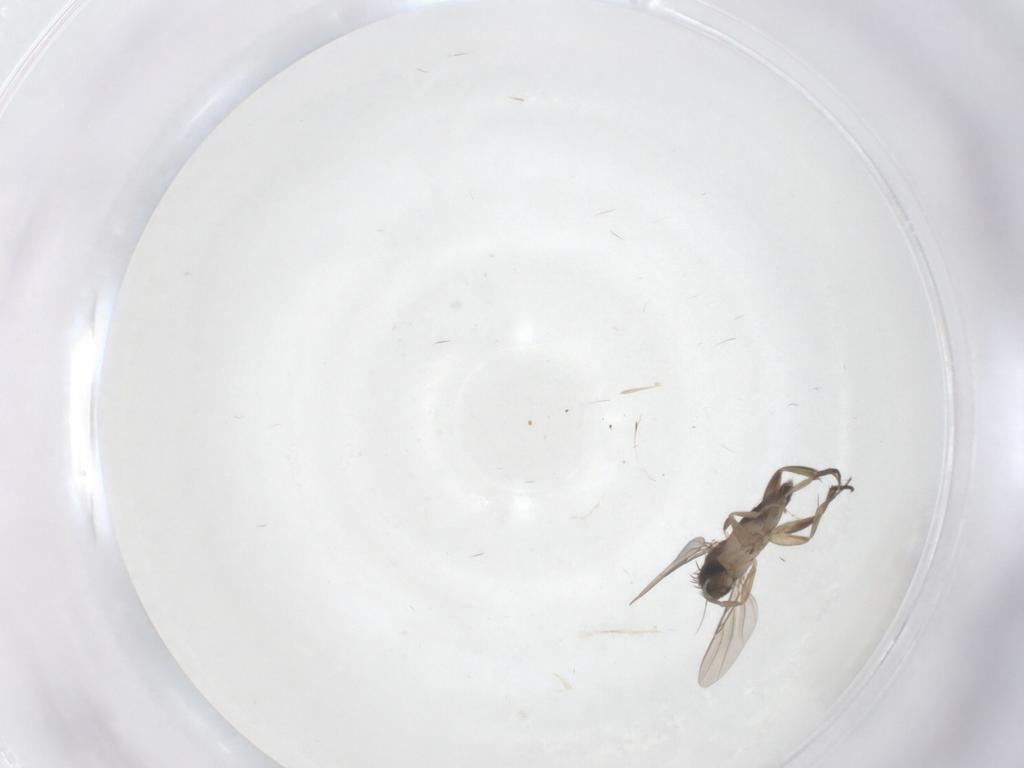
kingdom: Animalia
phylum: Arthropoda
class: Insecta
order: Diptera
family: Phoridae
